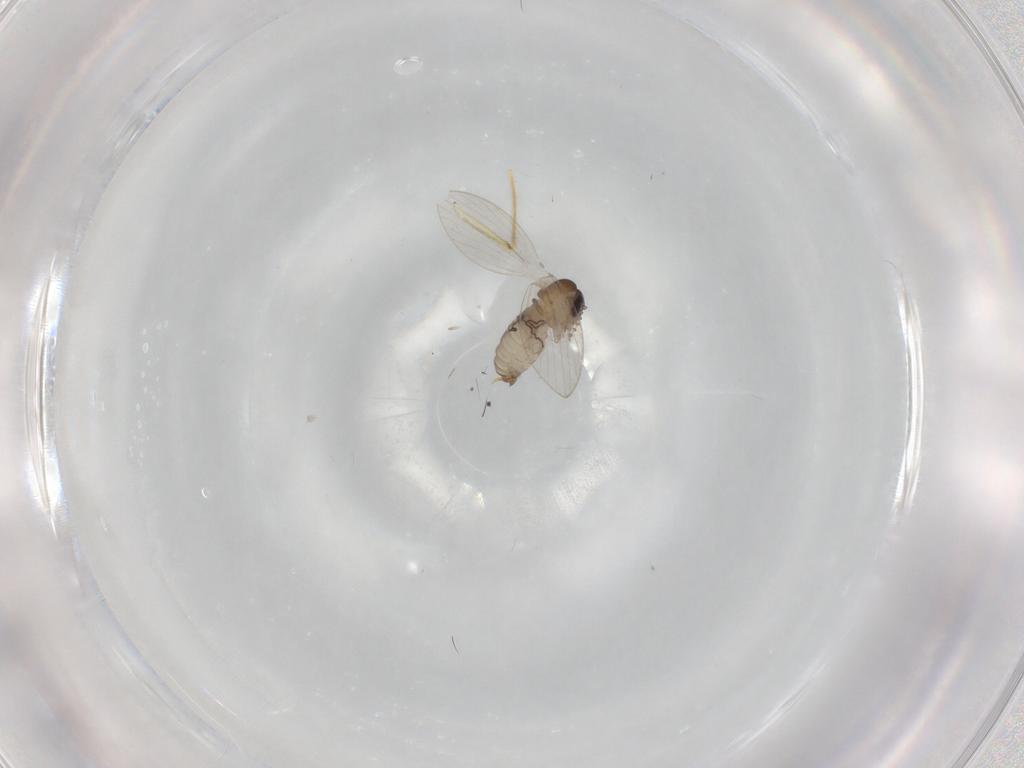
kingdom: Animalia
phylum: Arthropoda
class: Insecta
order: Diptera
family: Psychodidae
